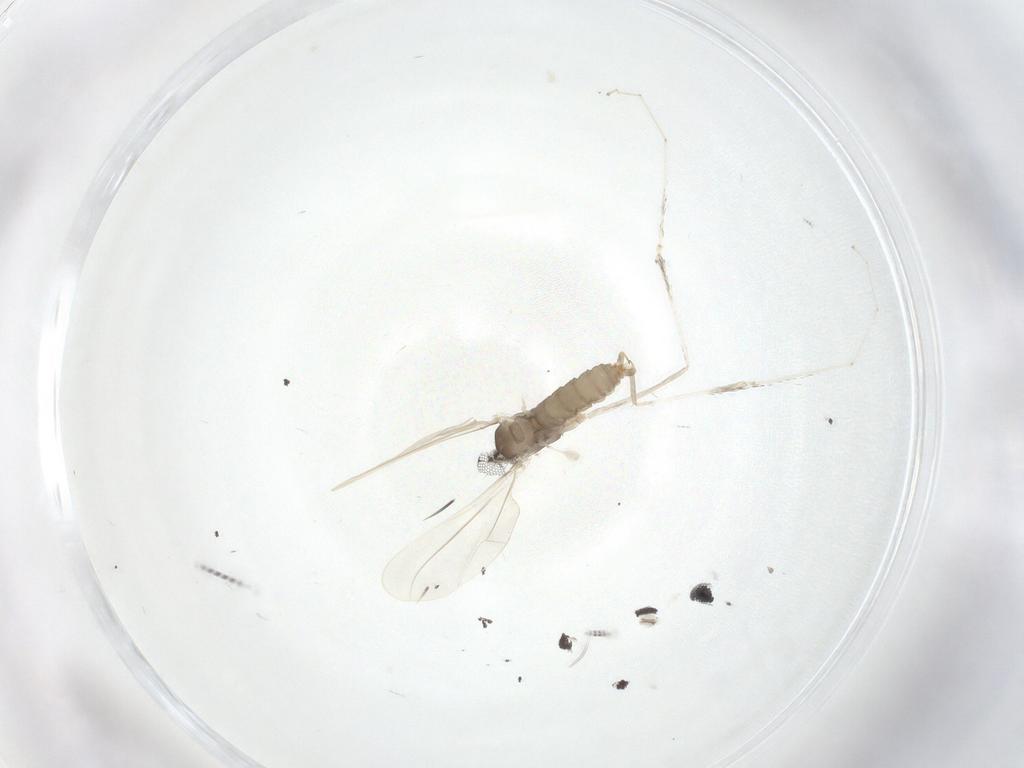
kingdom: Animalia
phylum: Arthropoda
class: Insecta
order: Diptera
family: Cecidomyiidae
